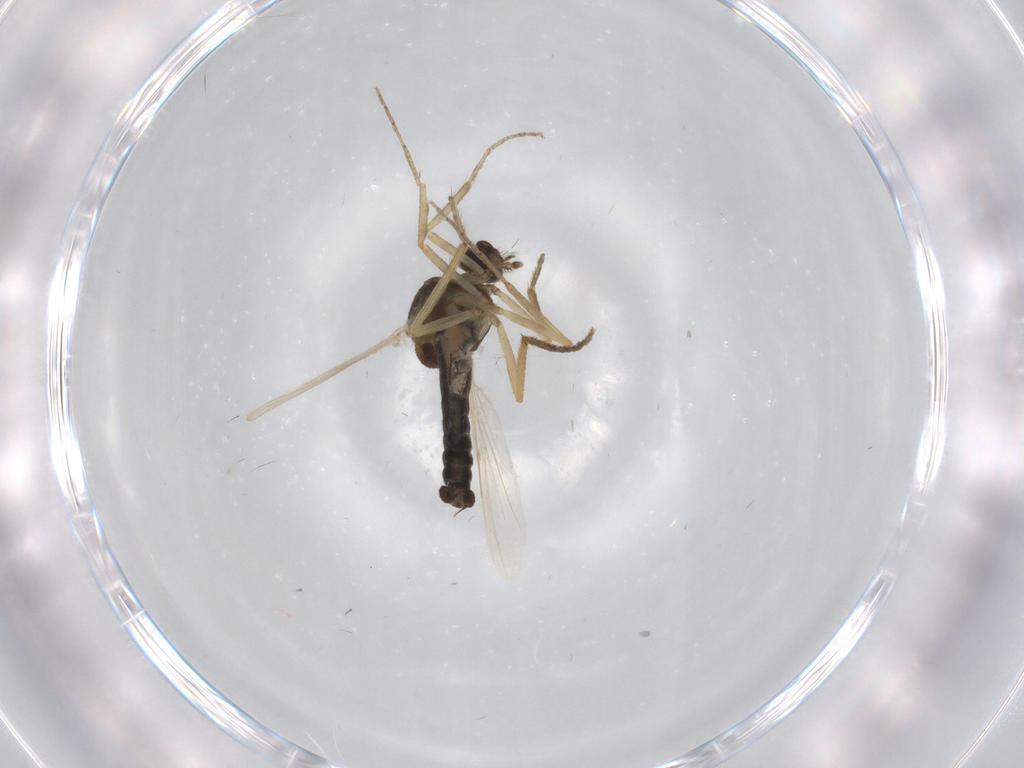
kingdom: Animalia
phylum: Arthropoda
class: Insecta
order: Diptera
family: Ceratopogonidae
